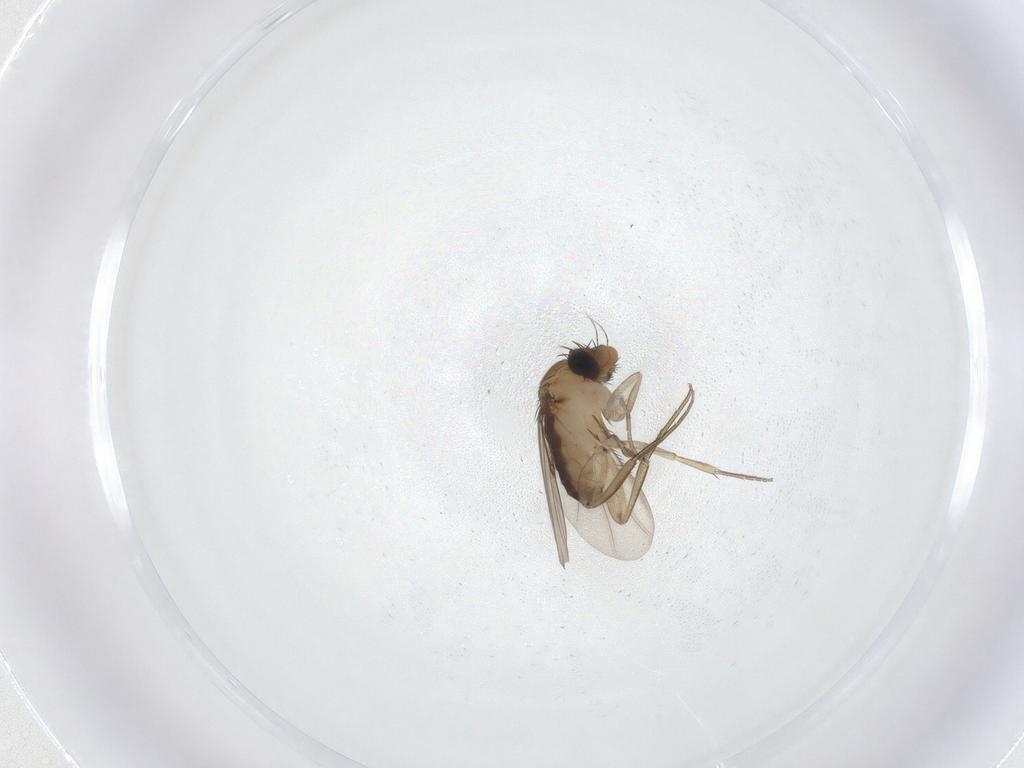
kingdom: Animalia
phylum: Arthropoda
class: Insecta
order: Diptera
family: Phoridae
